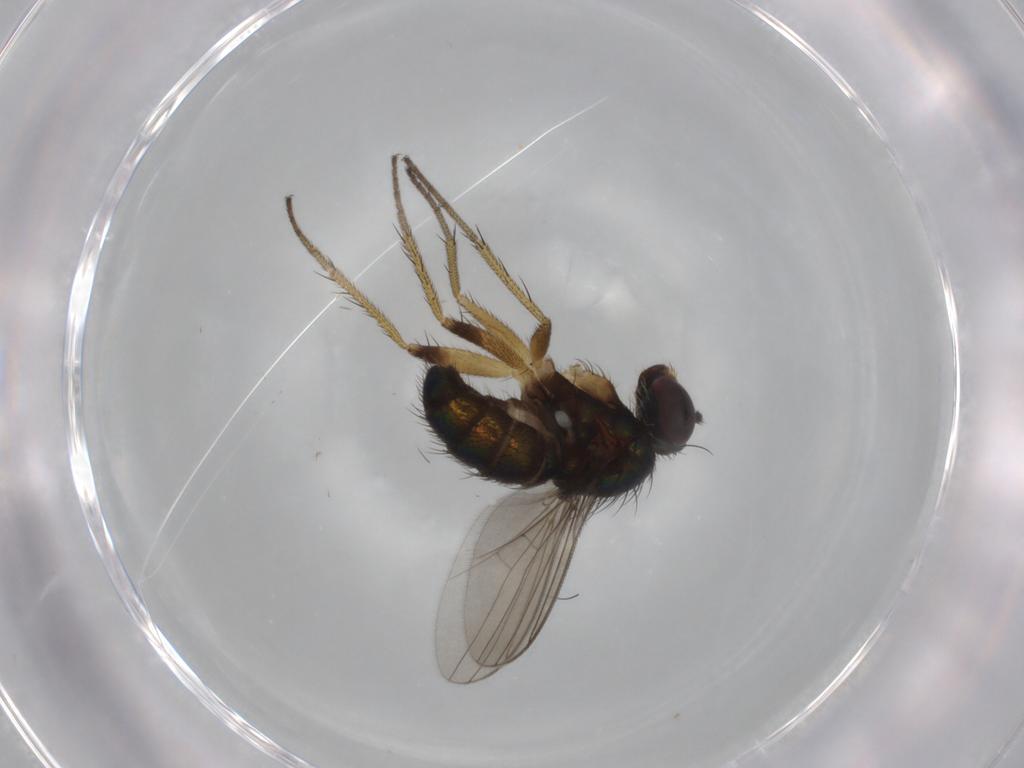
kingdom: Animalia
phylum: Arthropoda
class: Insecta
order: Diptera
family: Dolichopodidae
